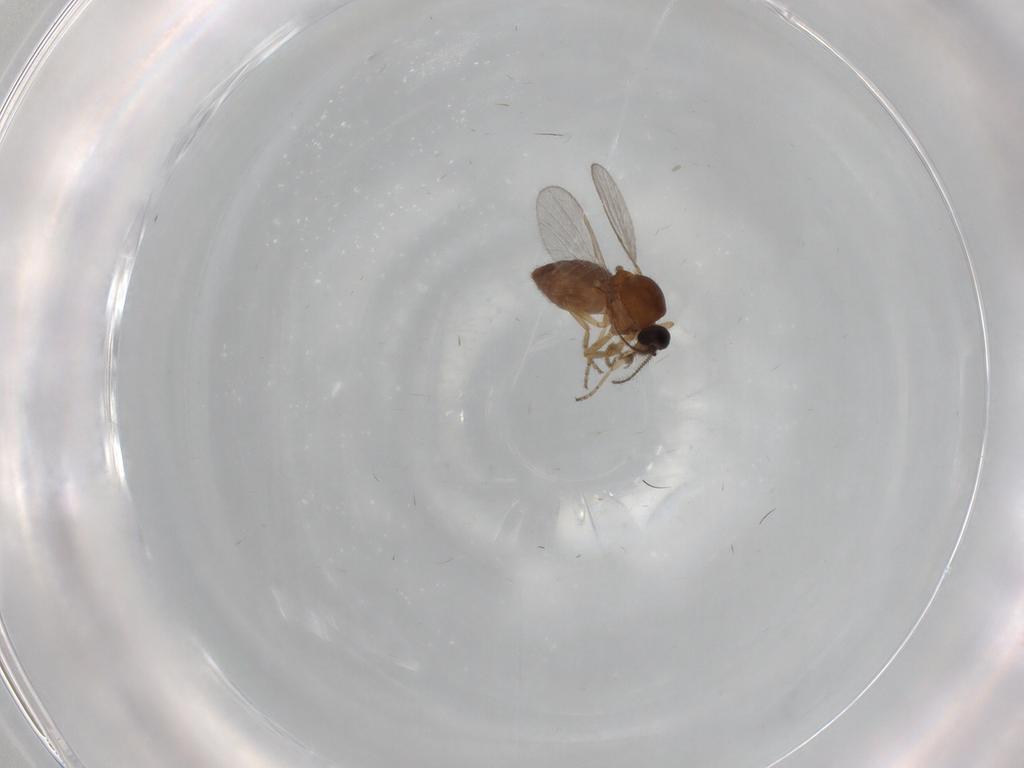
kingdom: Animalia
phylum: Arthropoda
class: Insecta
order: Diptera
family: Ceratopogonidae
